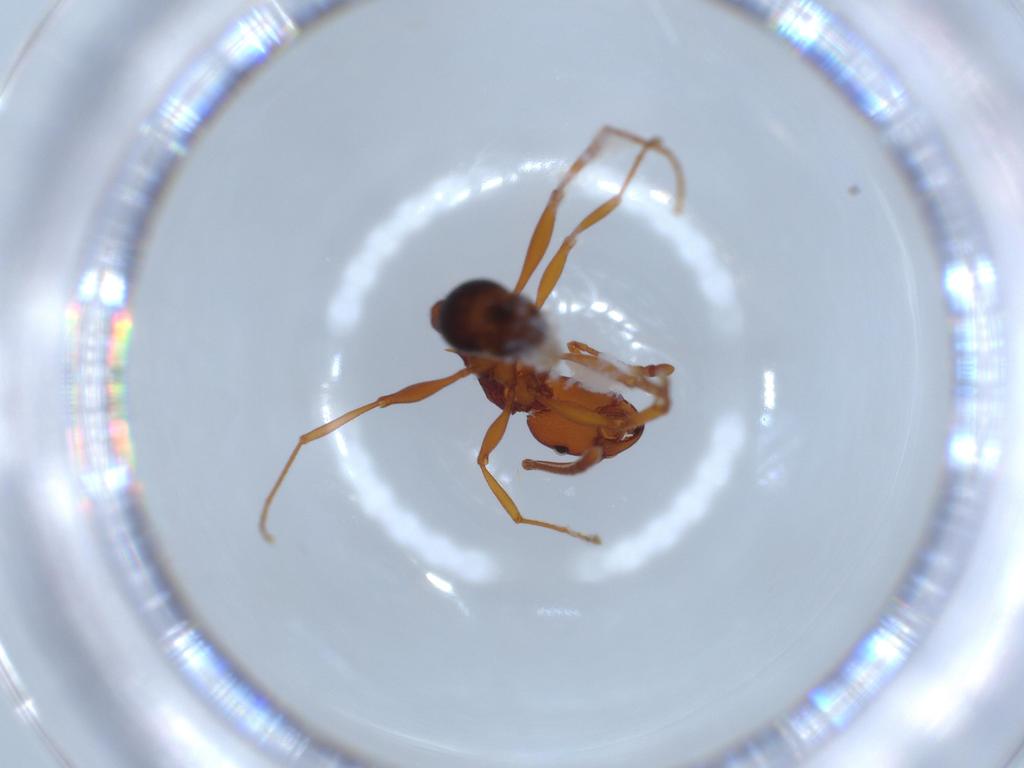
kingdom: Animalia
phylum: Arthropoda
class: Insecta
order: Hymenoptera
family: Formicidae
